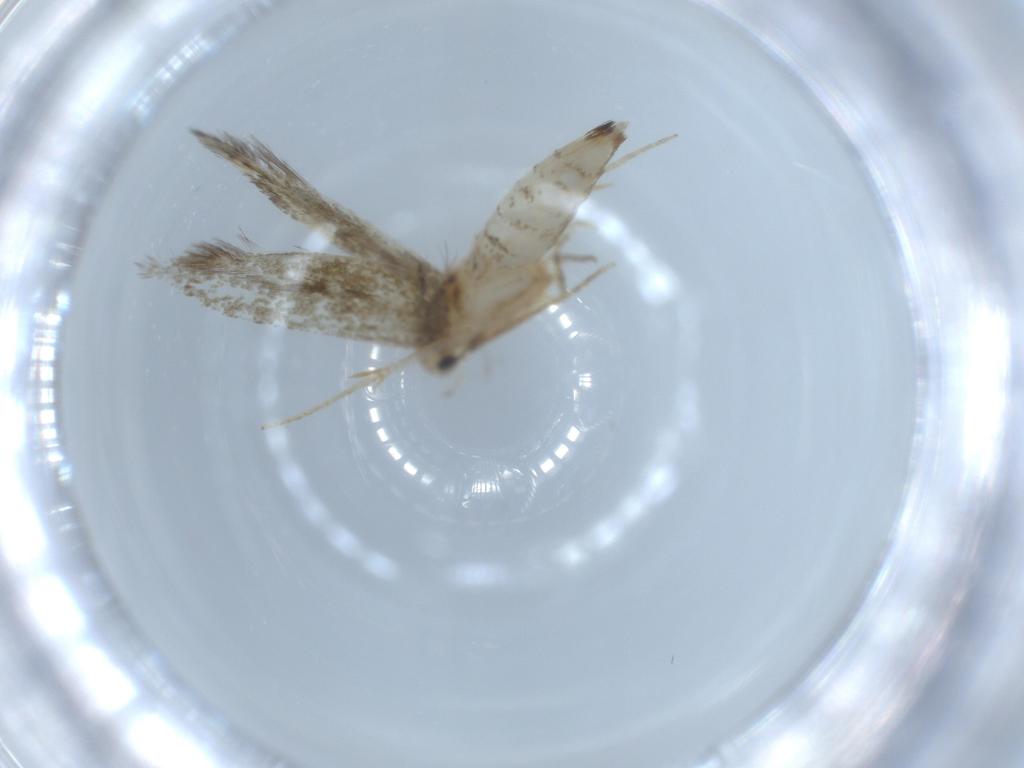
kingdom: Animalia
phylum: Arthropoda
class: Insecta
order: Lepidoptera
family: Tineidae
